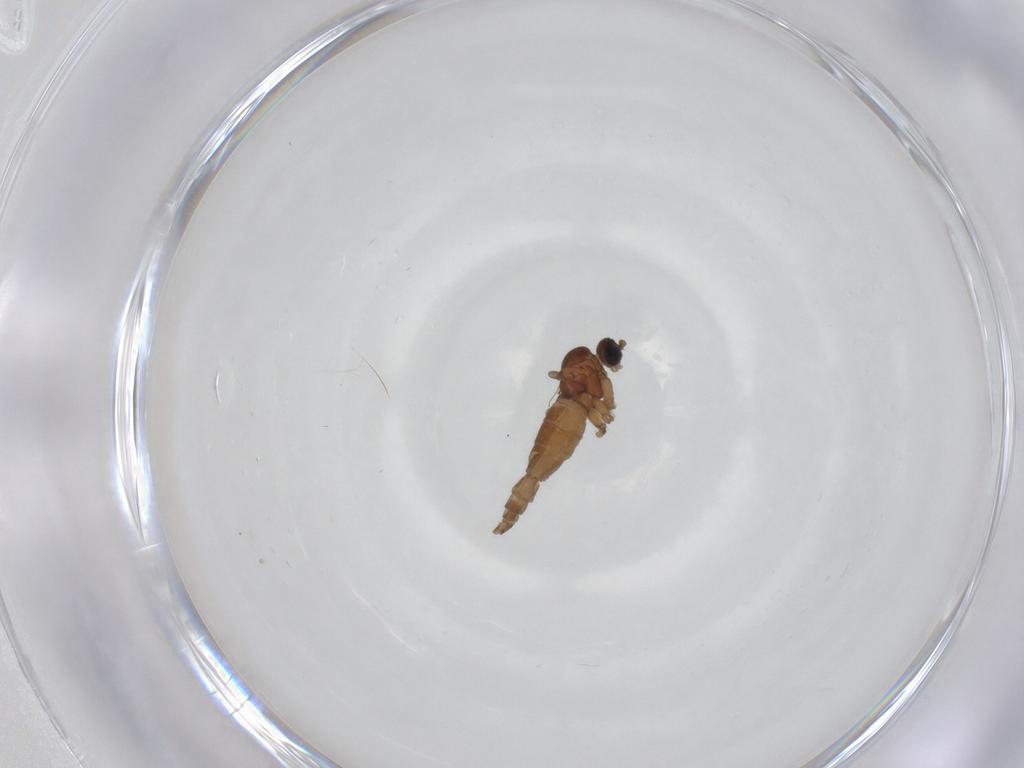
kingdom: Animalia
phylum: Arthropoda
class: Insecta
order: Diptera
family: Sciaridae
